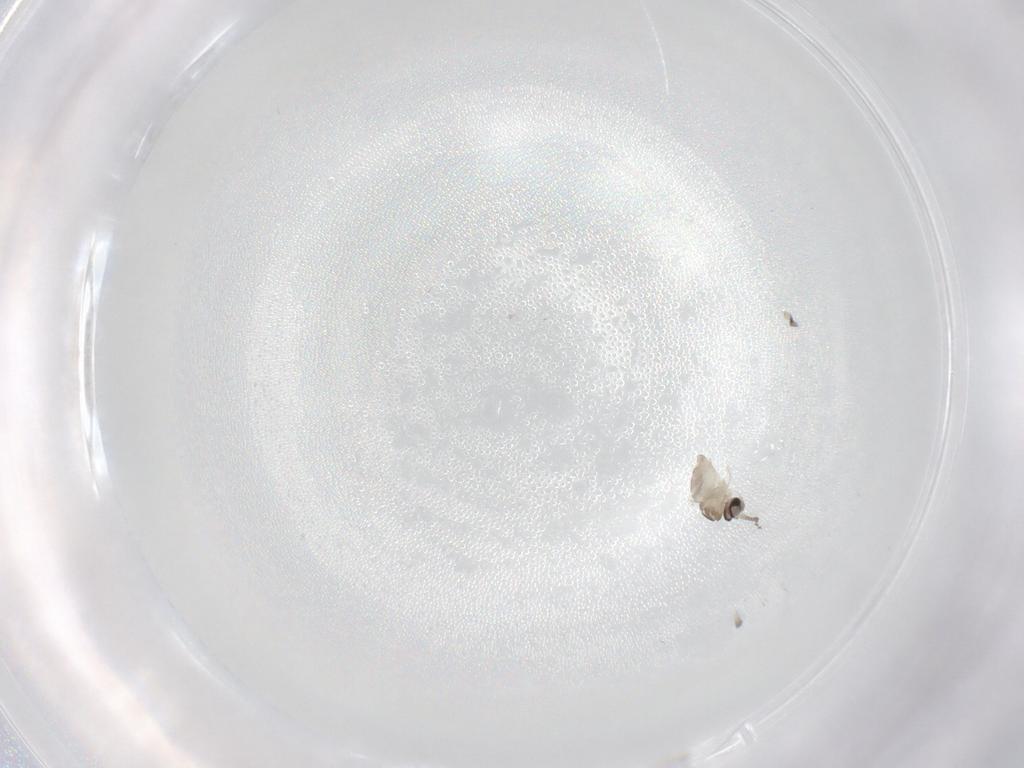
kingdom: Animalia
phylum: Arthropoda
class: Insecta
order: Diptera
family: Cecidomyiidae
